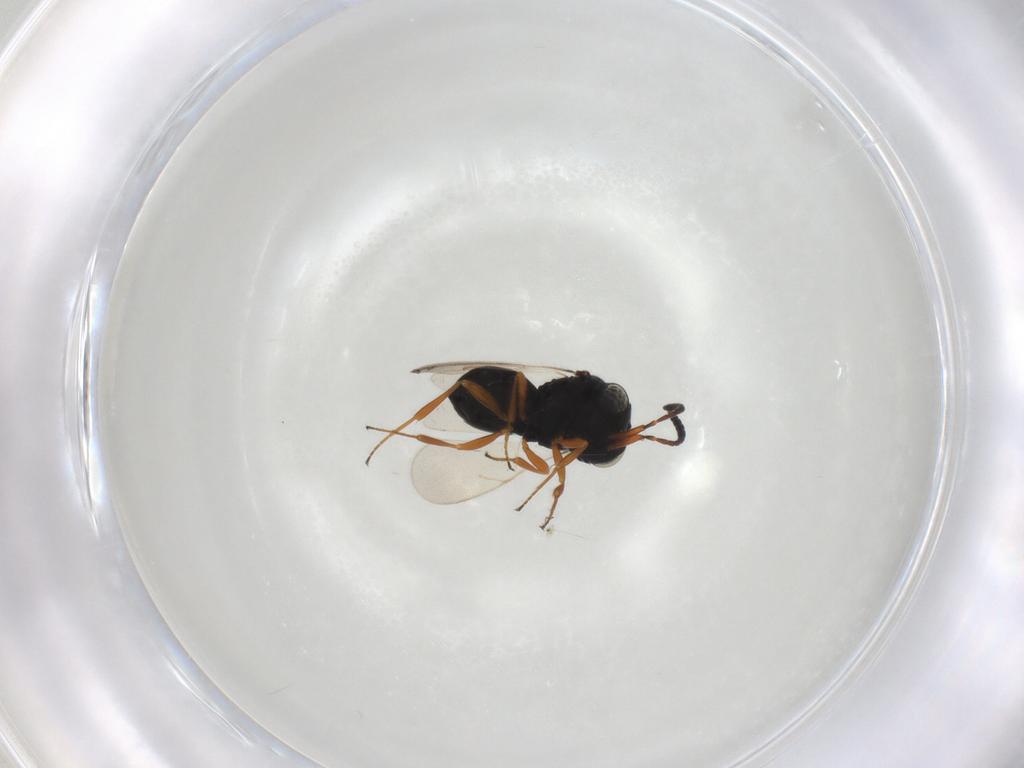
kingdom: Animalia
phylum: Arthropoda
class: Insecta
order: Hymenoptera
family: Scelionidae
